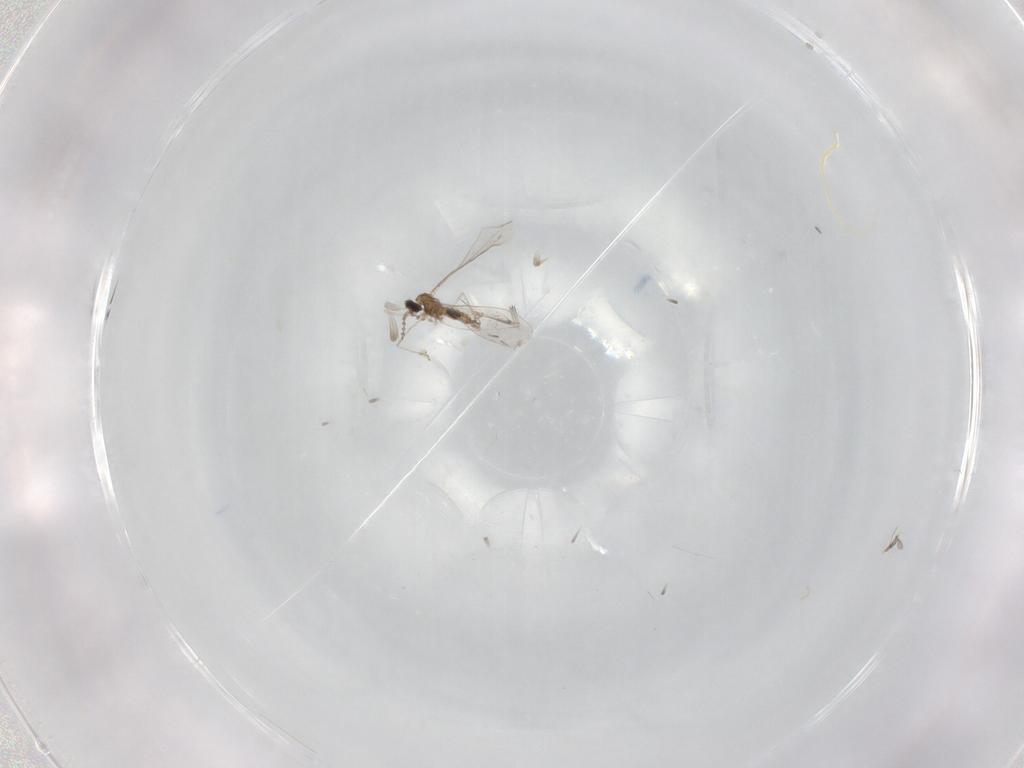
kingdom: Animalia
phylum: Arthropoda
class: Insecta
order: Diptera
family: Cecidomyiidae
